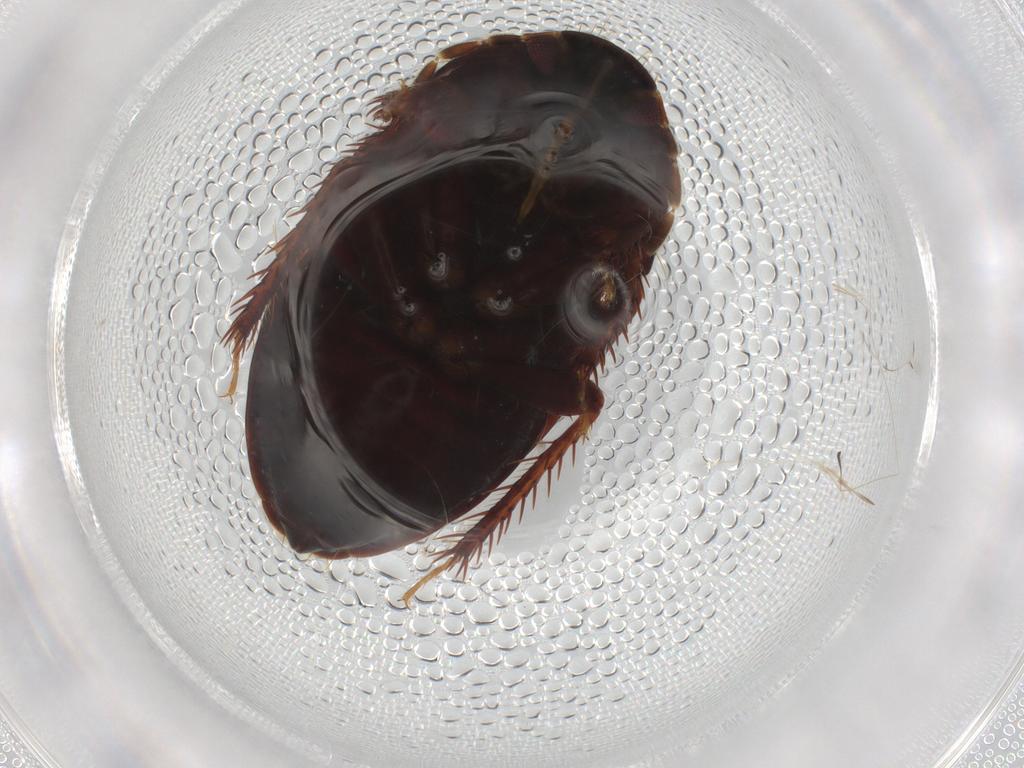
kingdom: Animalia
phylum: Arthropoda
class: Insecta
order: Hemiptera
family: Cydnidae
